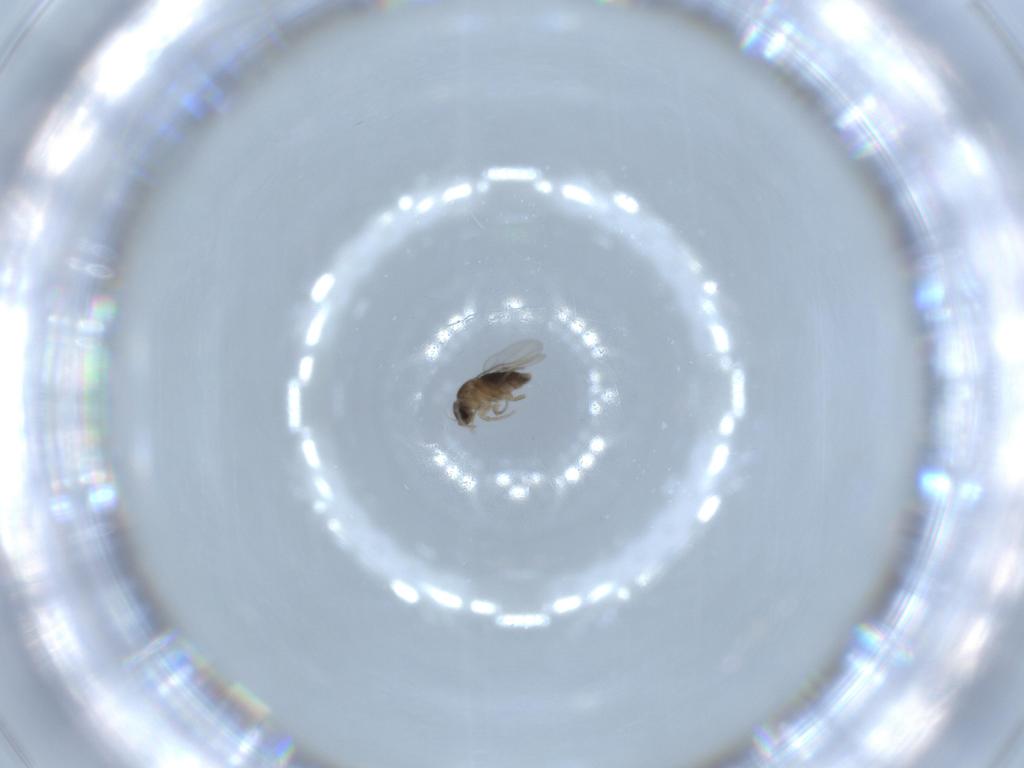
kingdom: Animalia
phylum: Arthropoda
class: Insecta
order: Diptera
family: Phoridae
